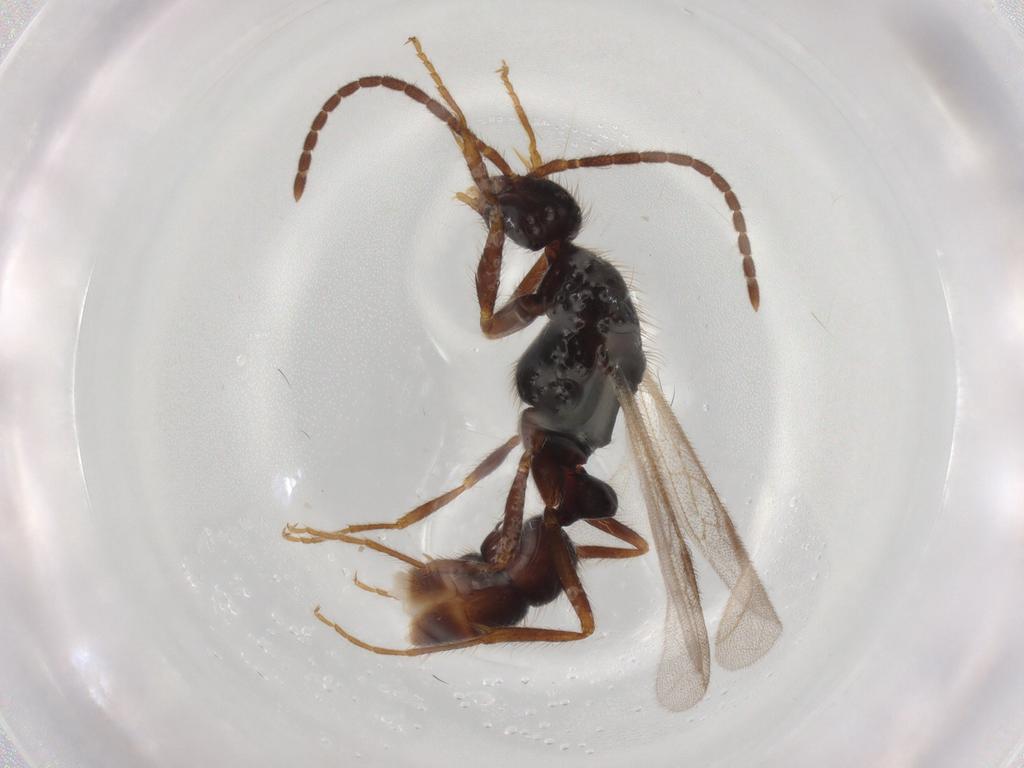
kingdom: Animalia
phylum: Arthropoda
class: Insecta
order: Hymenoptera
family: Formicidae
